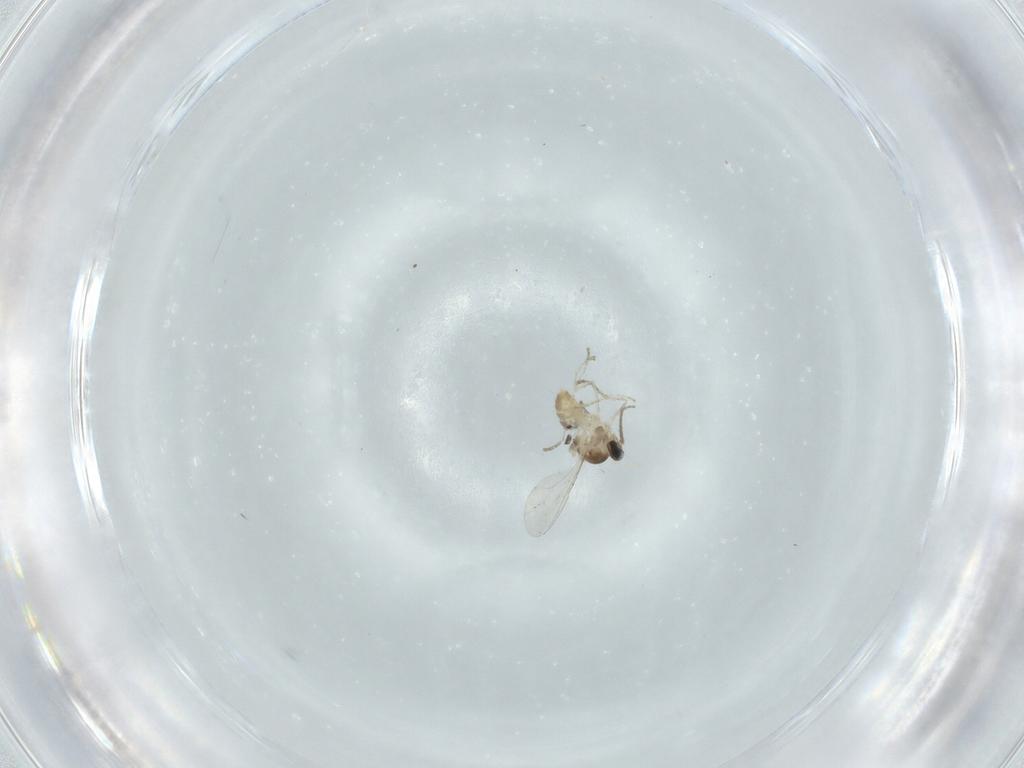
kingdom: Animalia
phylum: Arthropoda
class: Insecta
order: Diptera
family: Cecidomyiidae
